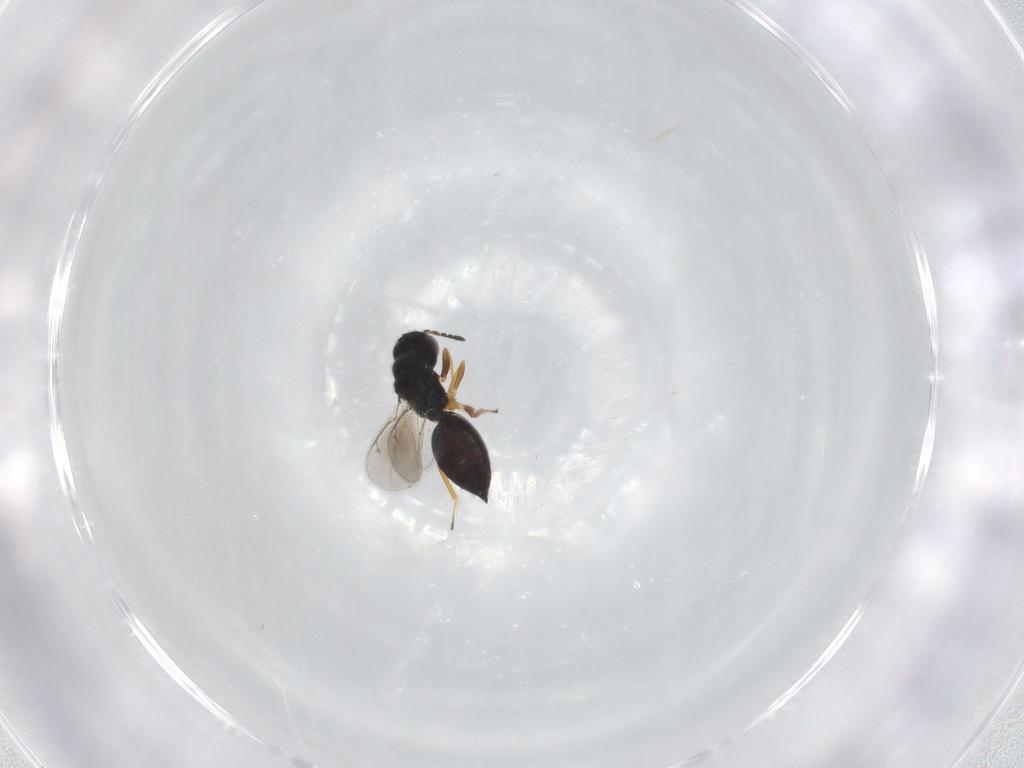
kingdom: Animalia
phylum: Arthropoda
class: Insecta
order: Hymenoptera
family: Eulophidae
